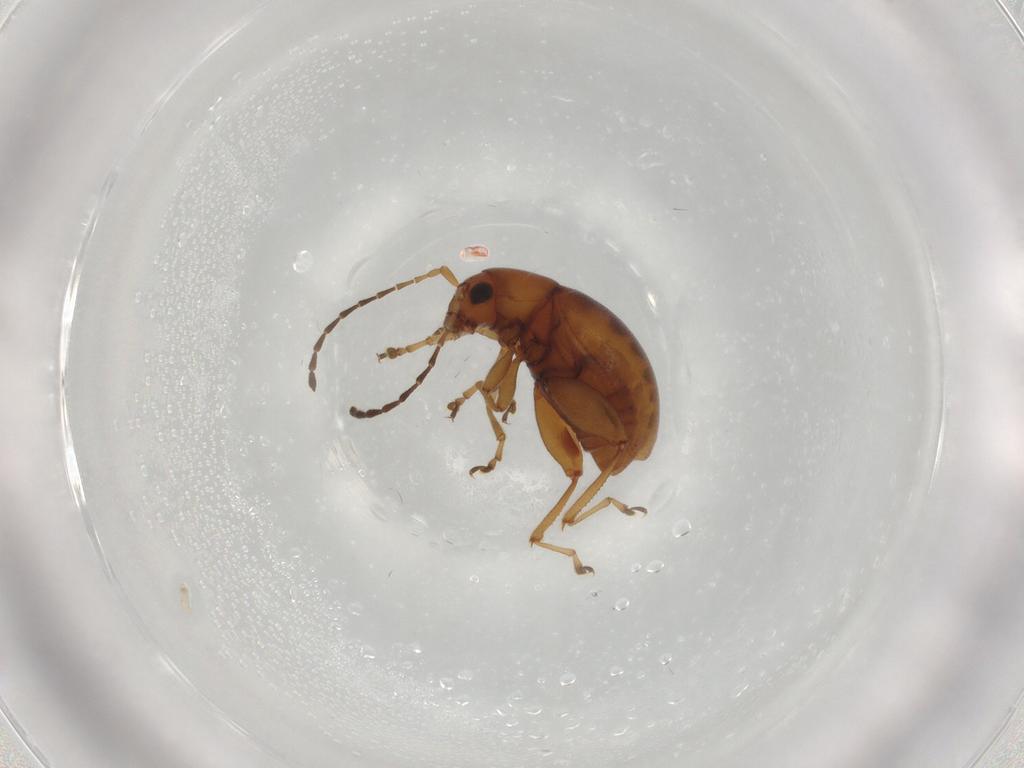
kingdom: Animalia
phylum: Arthropoda
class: Insecta
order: Coleoptera
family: Chrysomelidae
